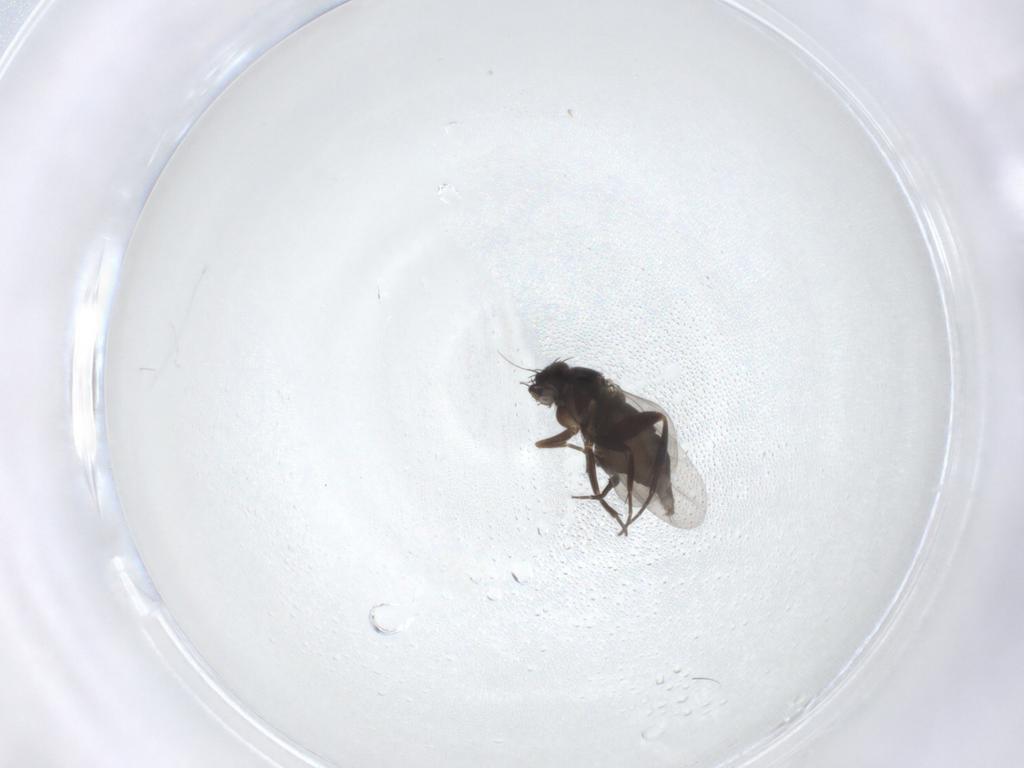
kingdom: Animalia
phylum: Arthropoda
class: Insecta
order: Diptera
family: Phoridae
